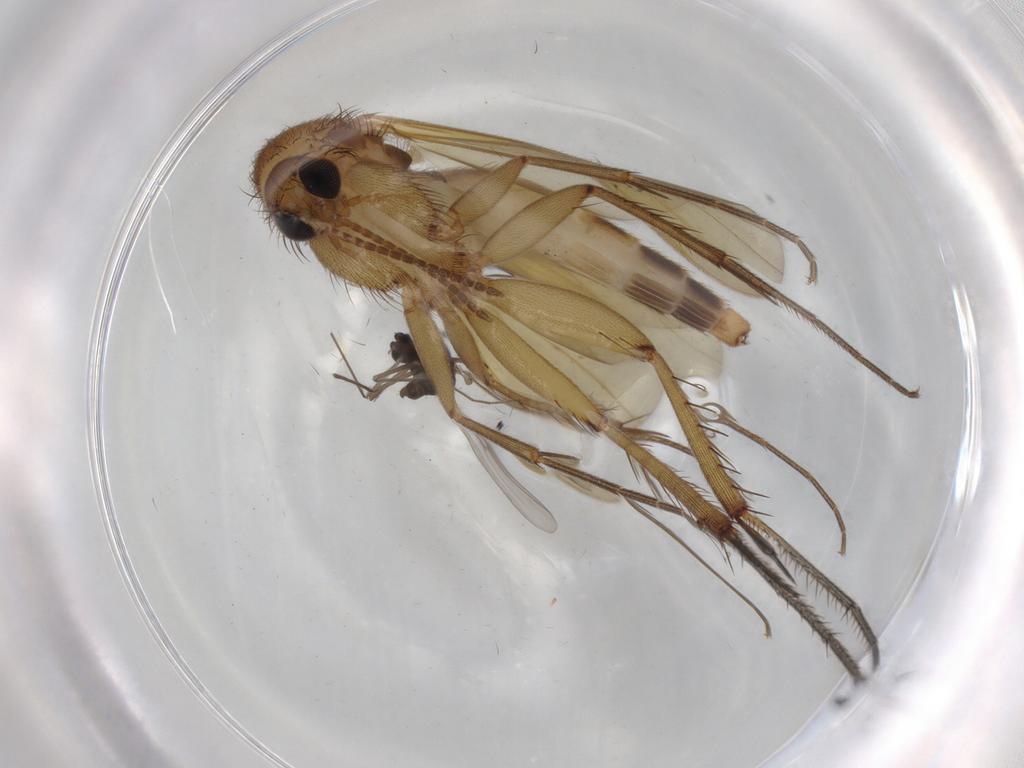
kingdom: Animalia
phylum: Arthropoda
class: Insecta
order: Diptera
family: Chironomidae
